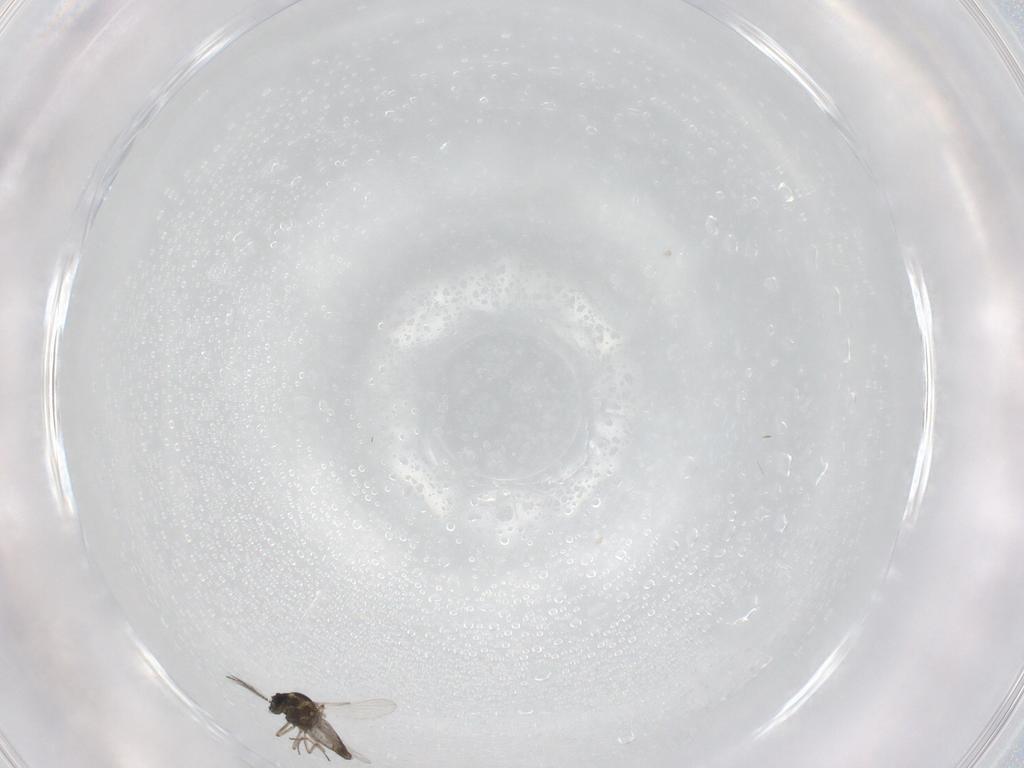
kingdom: Animalia
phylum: Arthropoda
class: Insecta
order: Diptera
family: Ceratopogonidae
